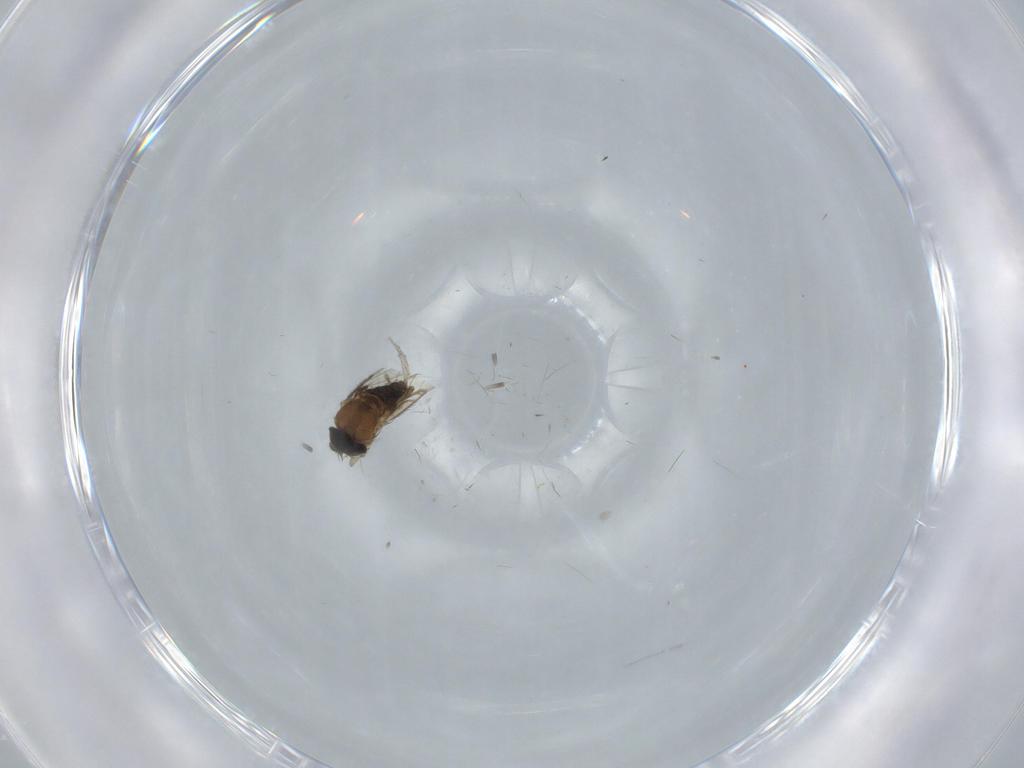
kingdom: Animalia
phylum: Arthropoda
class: Insecta
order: Diptera
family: Phoridae
